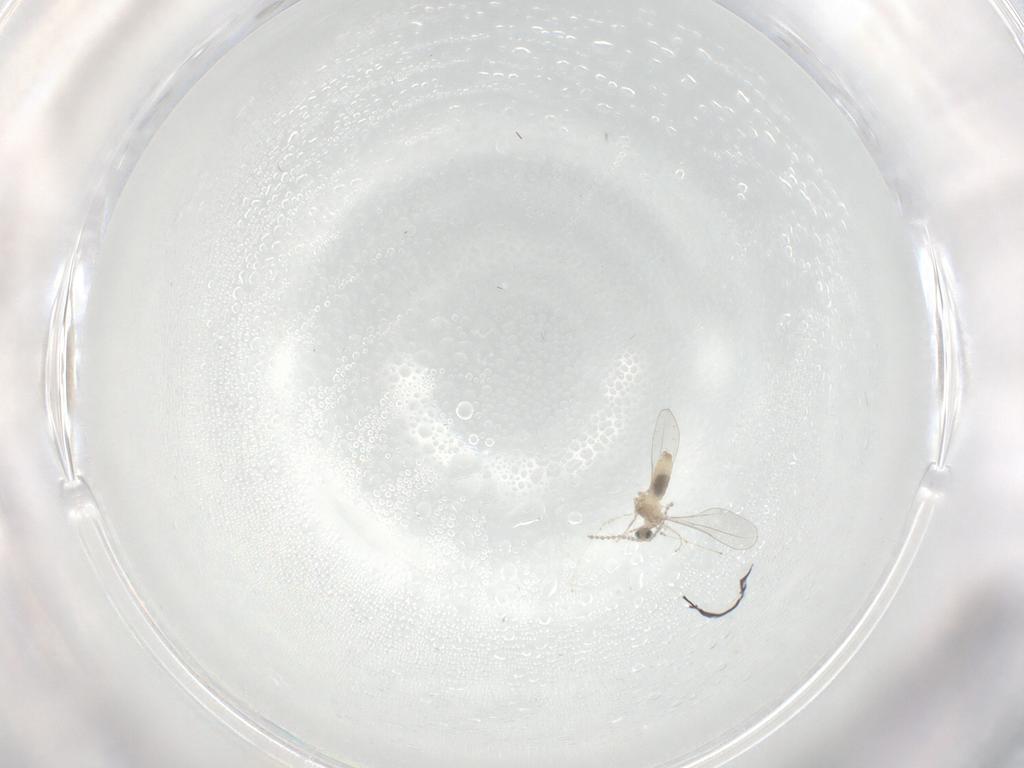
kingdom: Animalia
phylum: Arthropoda
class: Insecta
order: Diptera
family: Cecidomyiidae
